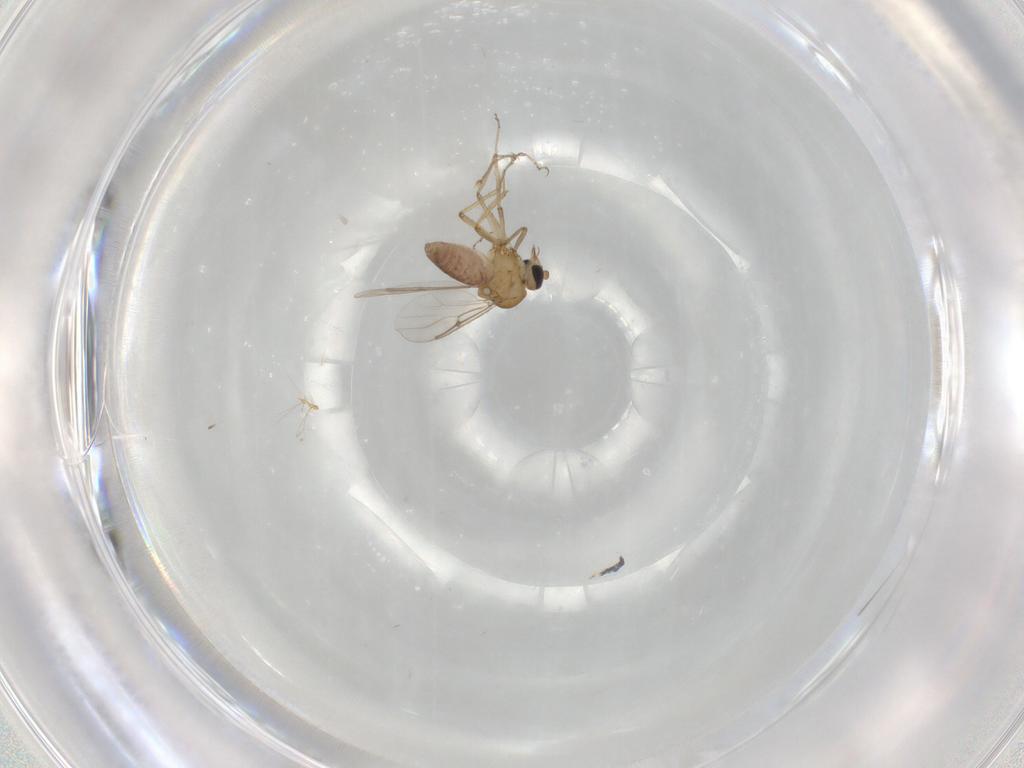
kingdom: Animalia
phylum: Arthropoda
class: Insecta
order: Diptera
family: Cecidomyiidae
